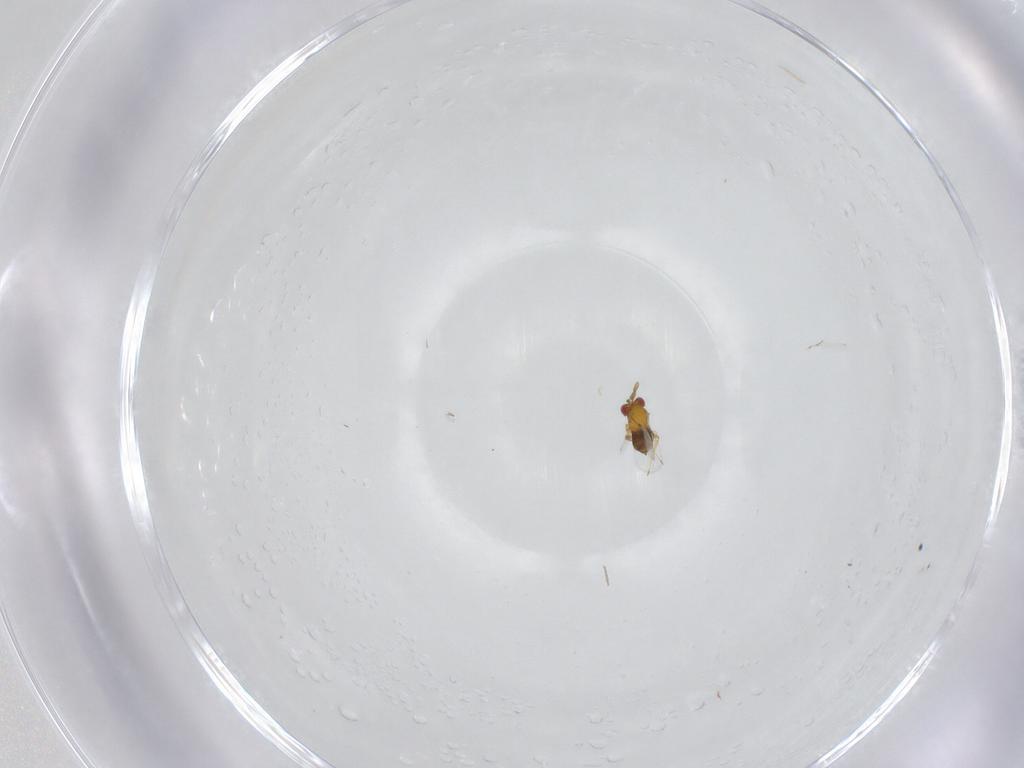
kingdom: Animalia
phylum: Arthropoda
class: Insecta
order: Hymenoptera
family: Trichogrammatidae
